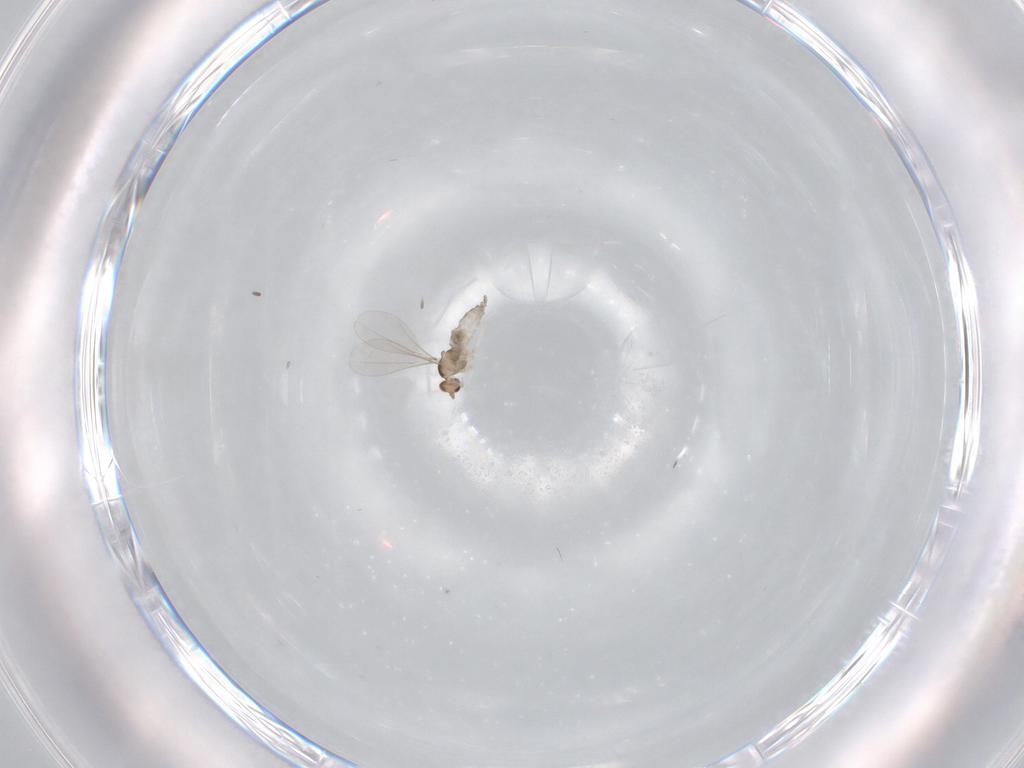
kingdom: Animalia
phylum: Arthropoda
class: Insecta
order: Diptera
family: Cecidomyiidae
